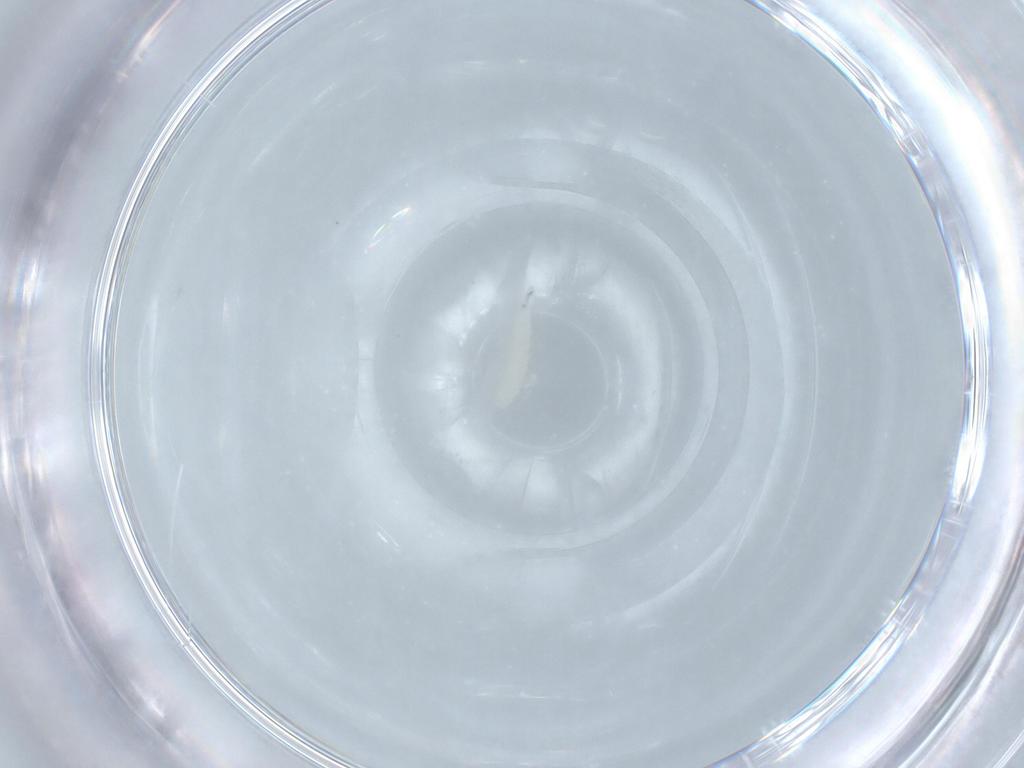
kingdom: Animalia
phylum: Arthropoda
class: Insecta
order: Diptera
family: Sarcophagidae
